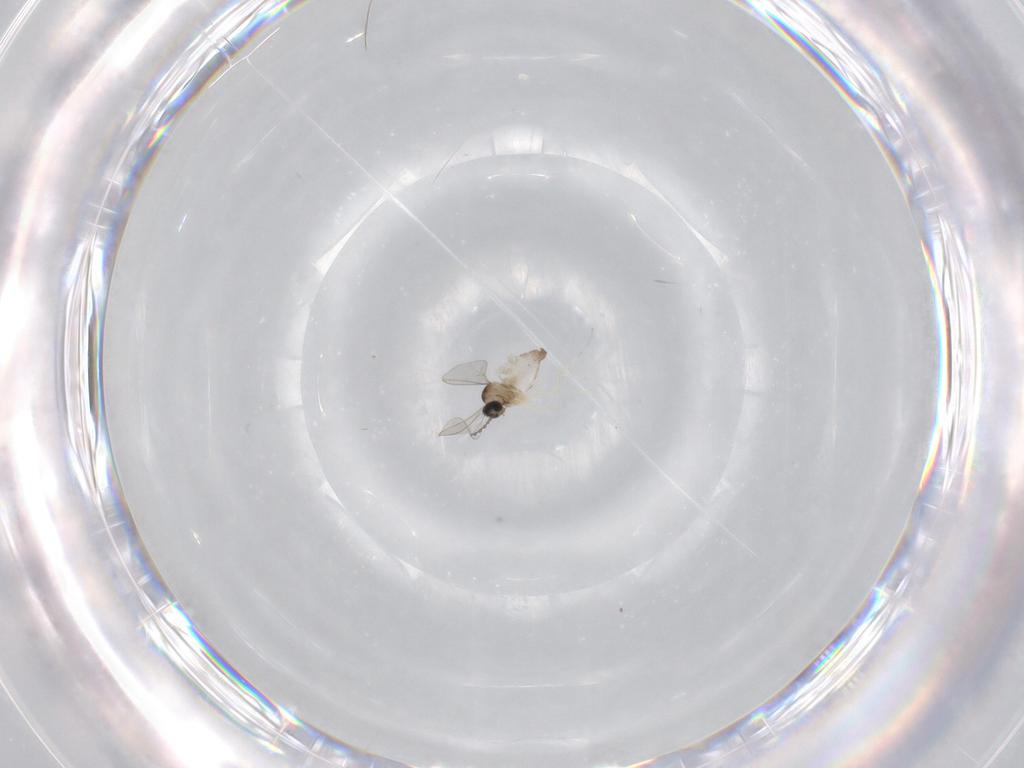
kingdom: Animalia
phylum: Arthropoda
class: Insecta
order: Diptera
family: Cecidomyiidae
